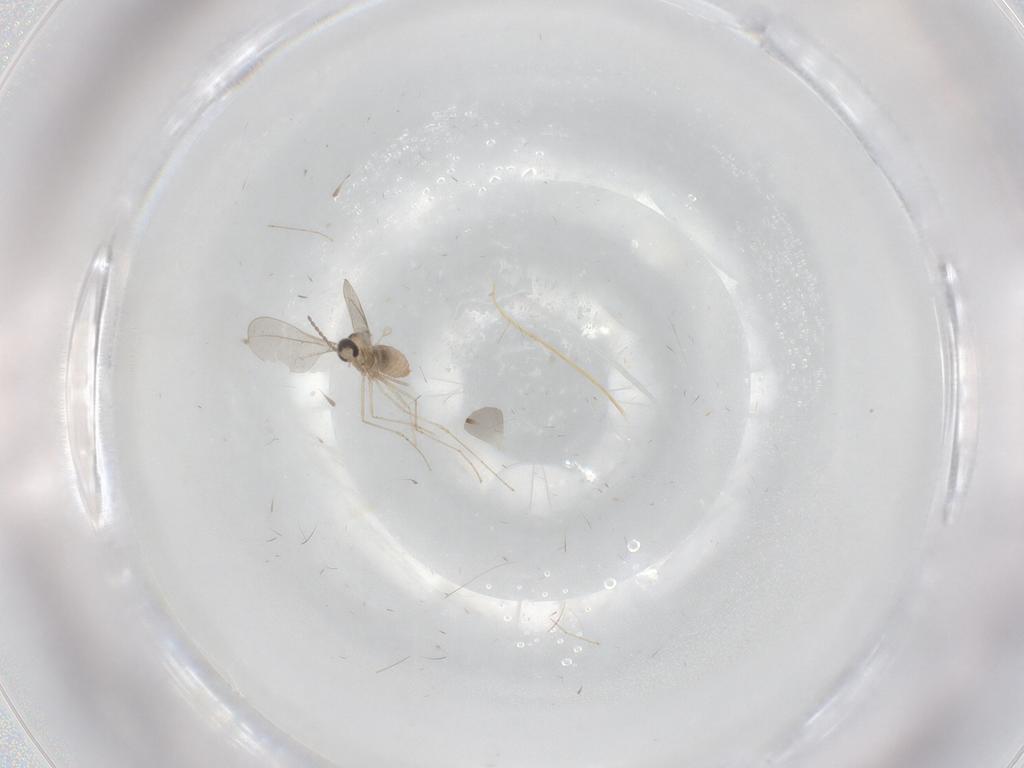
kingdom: Animalia
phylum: Arthropoda
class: Insecta
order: Diptera
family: Cecidomyiidae
